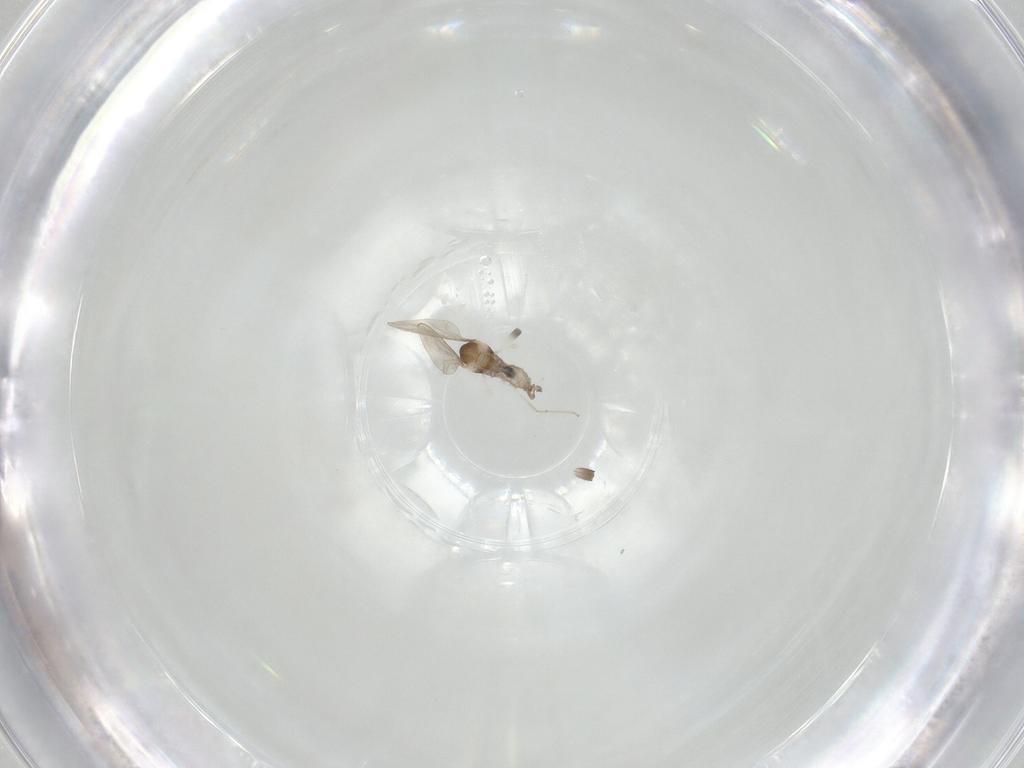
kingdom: Animalia
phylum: Arthropoda
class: Insecta
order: Diptera
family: Cecidomyiidae
